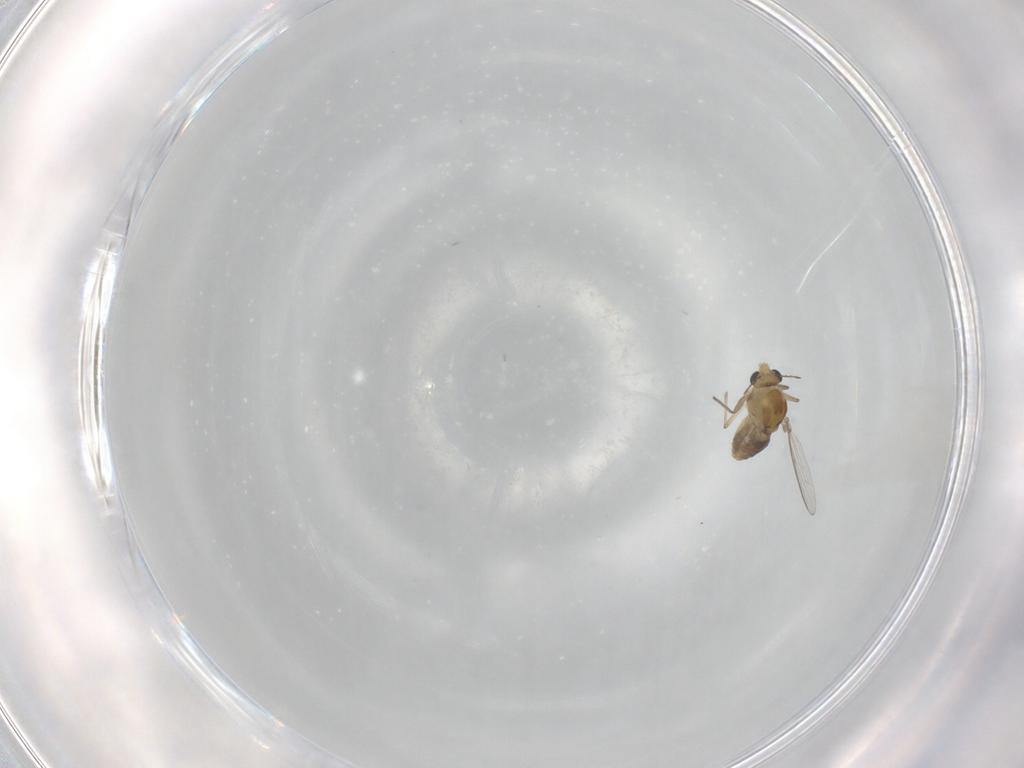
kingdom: Animalia
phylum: Arthropoda
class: Insecta
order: Diptera
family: Chironomidae
